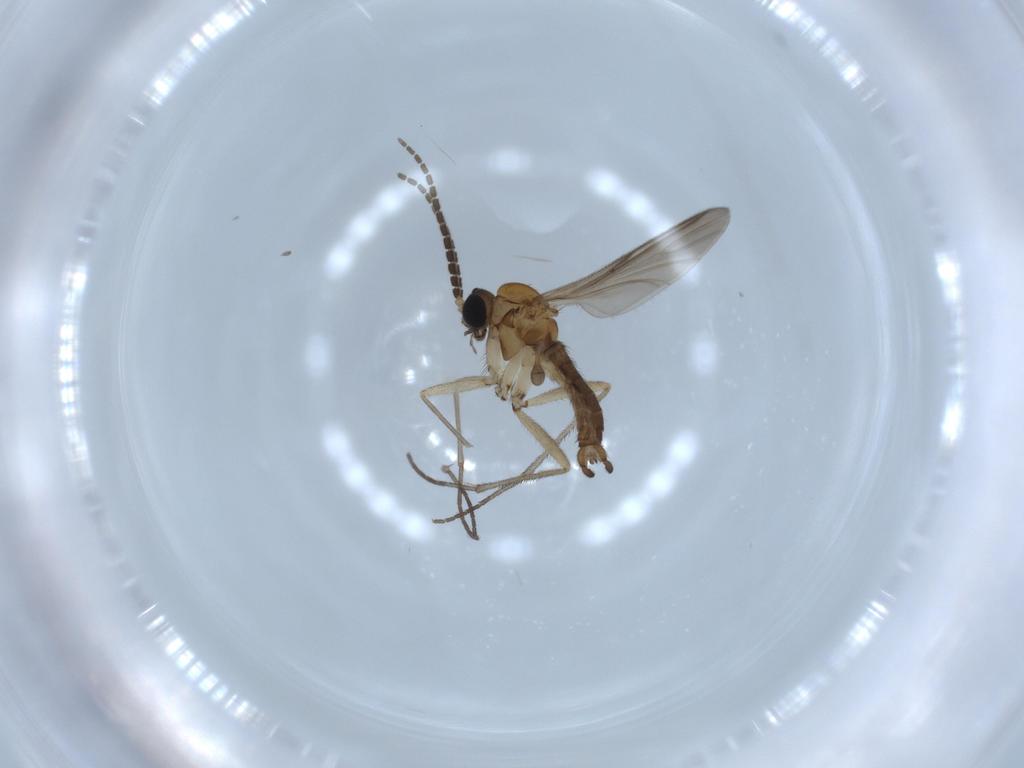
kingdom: Animalia
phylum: Arthropoda
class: Insecta
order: Diptera
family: Sciaridae
